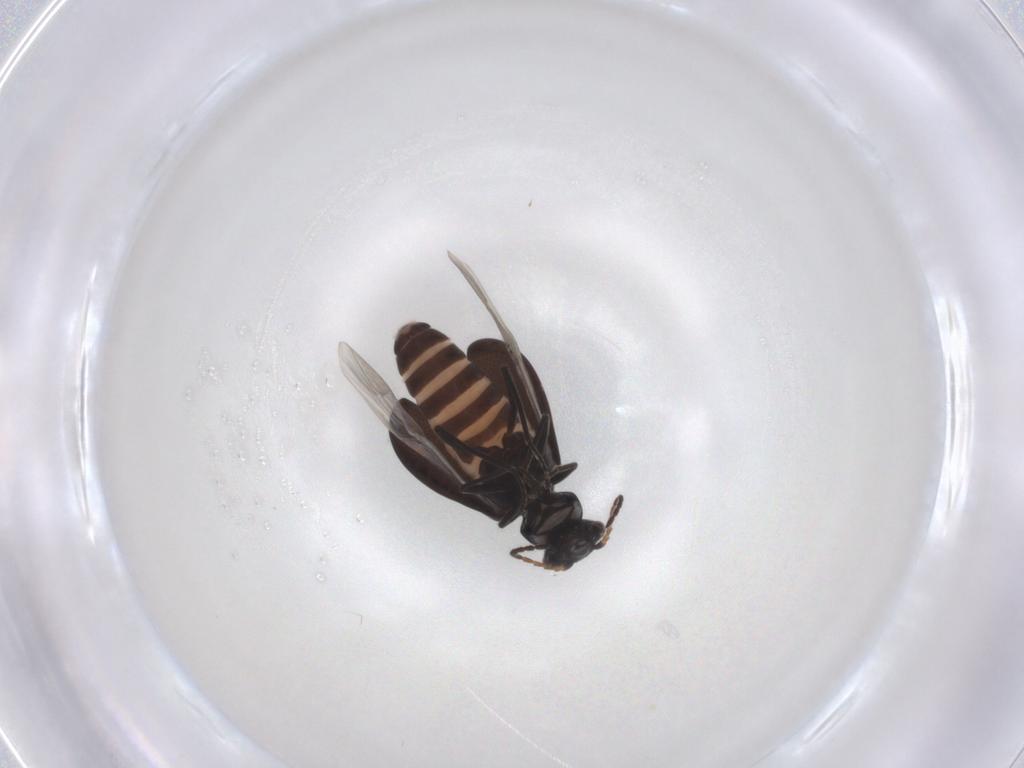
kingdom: Animalia
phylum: Arthropoda
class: Insecta
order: Coleoptera
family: Melyridae
